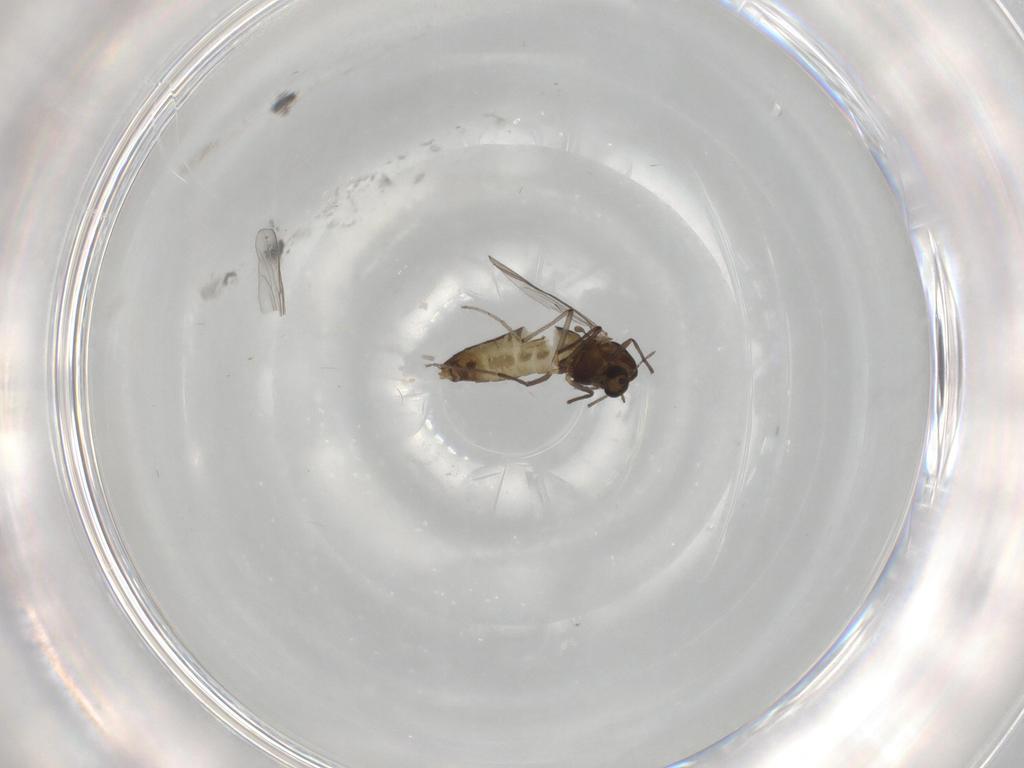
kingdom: Animalia
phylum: Arthropoda
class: Insecta
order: Diptera
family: Chironomidae
